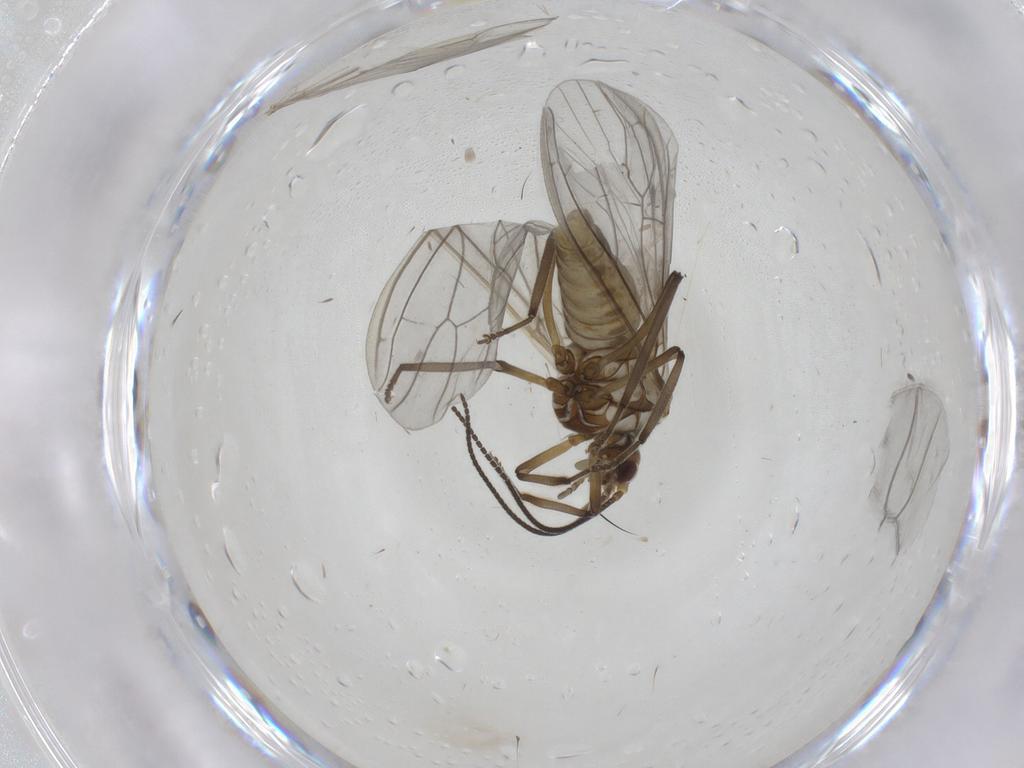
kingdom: Animalia
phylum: Arthropoda
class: Insecta
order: Neuroptera
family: Coniopterygidae
